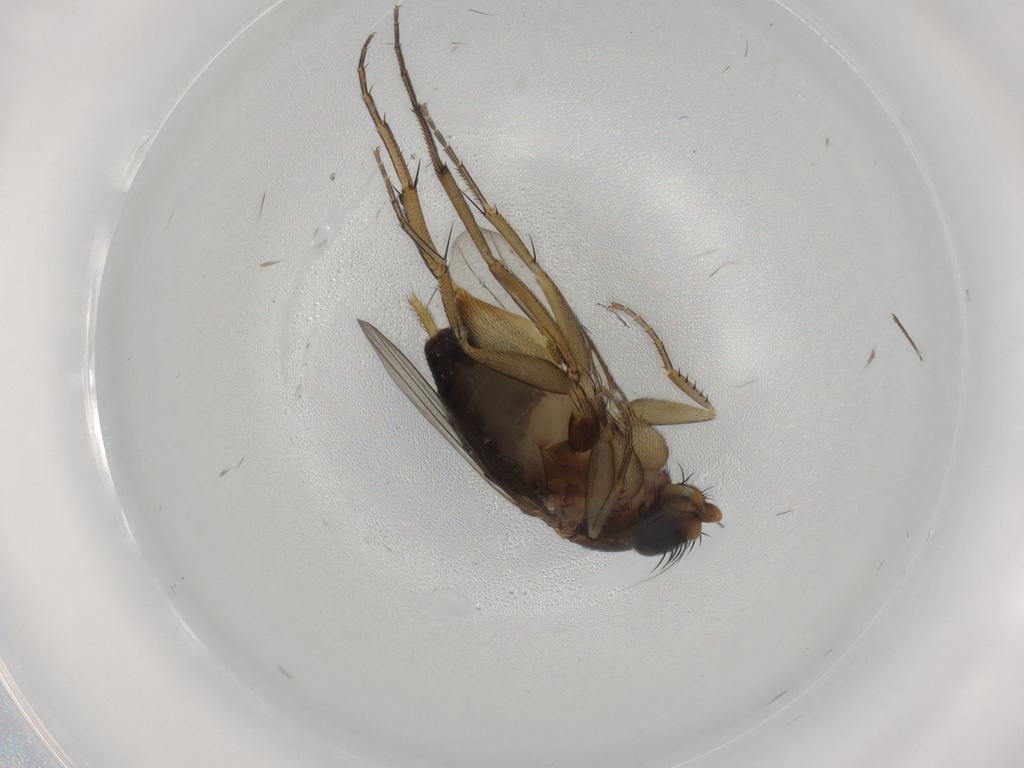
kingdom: Animalia
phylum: Arthropoda
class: Insecta
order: Diptera
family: Phoridae
